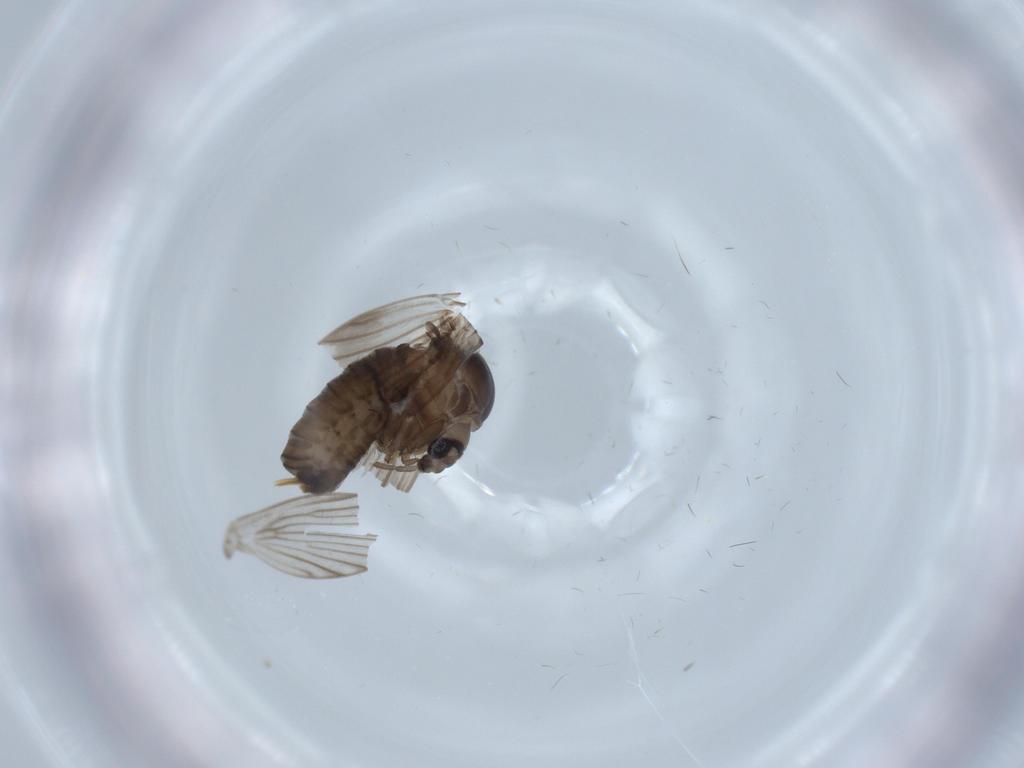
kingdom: Animalia
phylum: Arthropoda
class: Insecta
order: Diptera
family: Psychodidae
